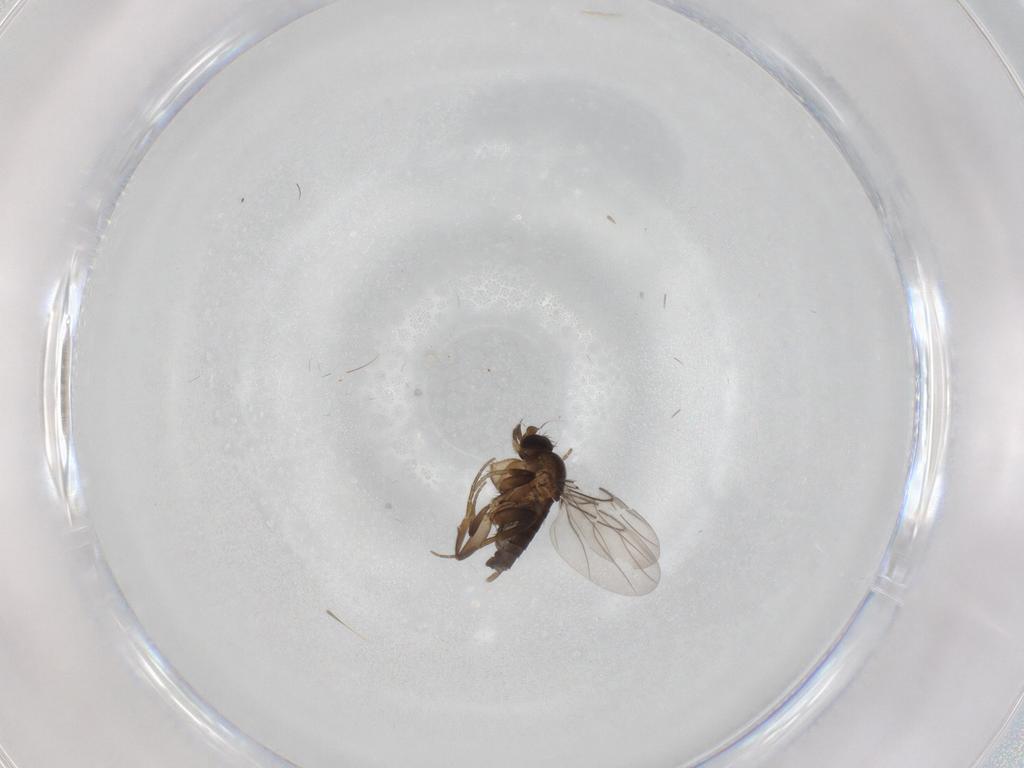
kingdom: Animalia
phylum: Arthropoda
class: Insecta
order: Diptera
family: Phoridae
